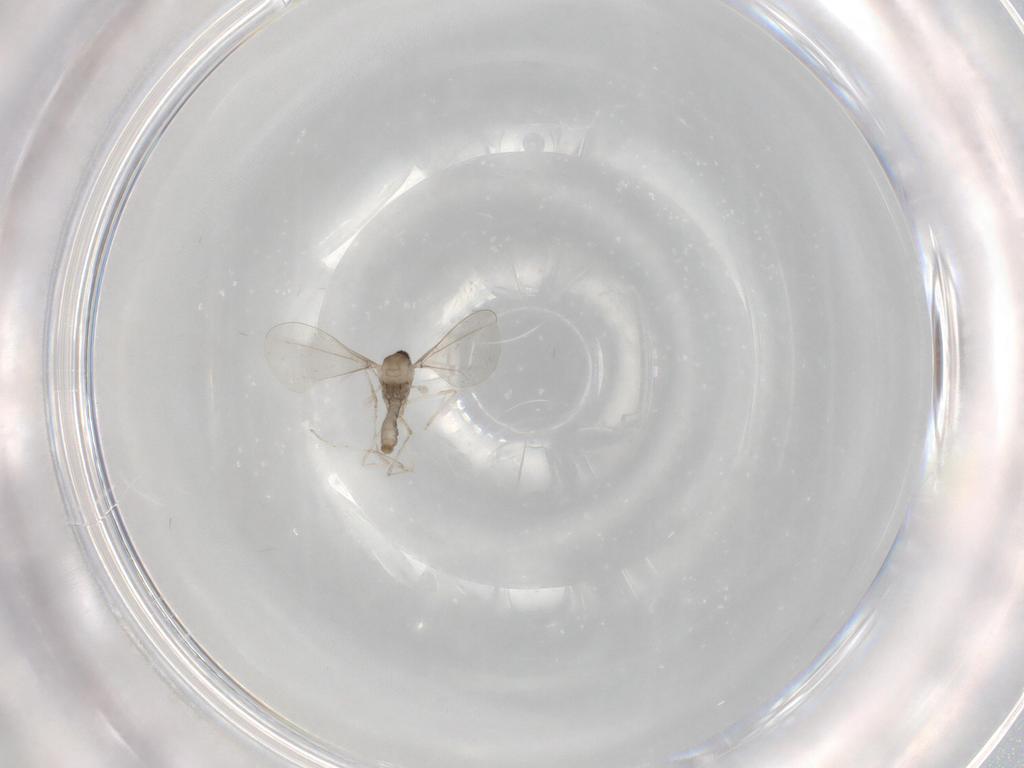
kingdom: Animalia
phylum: Arthropoda
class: Insecta
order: Diptera
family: Cecidomyiidae
